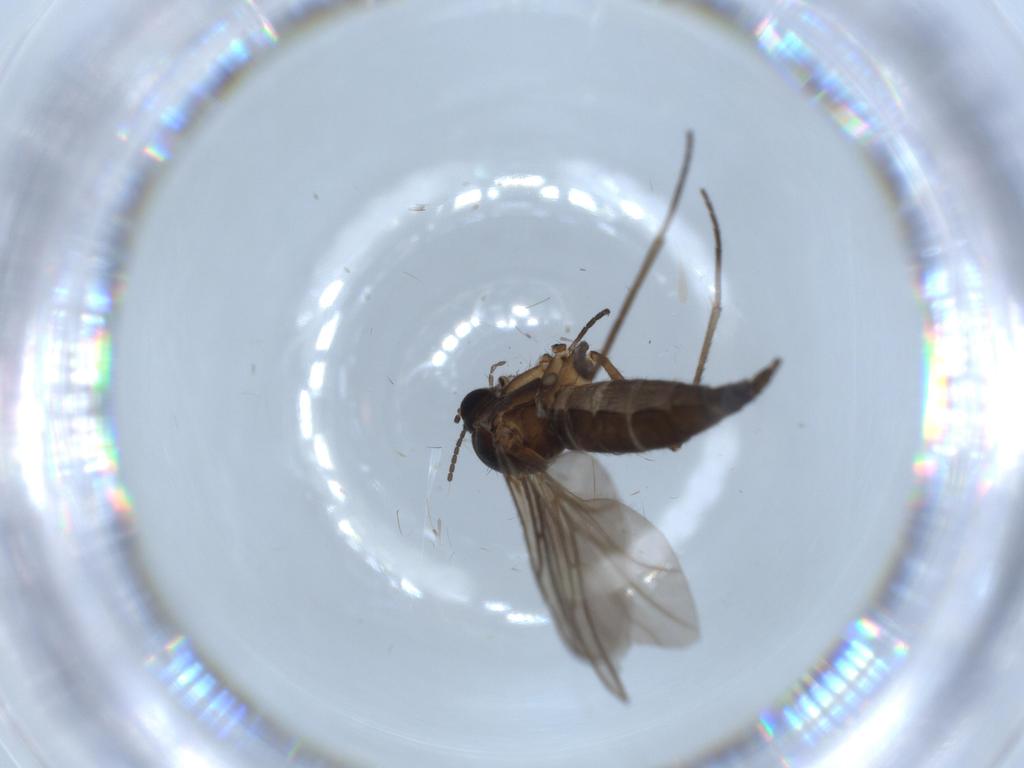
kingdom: Animalia
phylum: Arthropoda
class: Insecta
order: Diptera
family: Sciaridae
